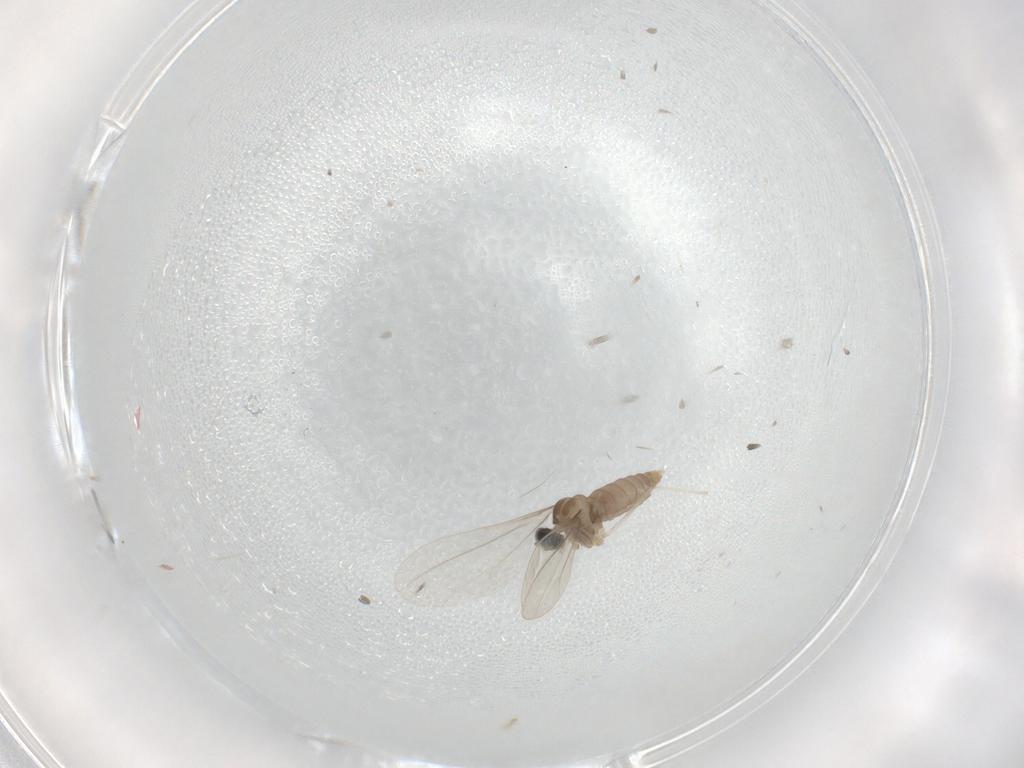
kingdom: Animalia
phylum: Arthropoda
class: Insecta
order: Diptera
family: Cecidomyiidae
